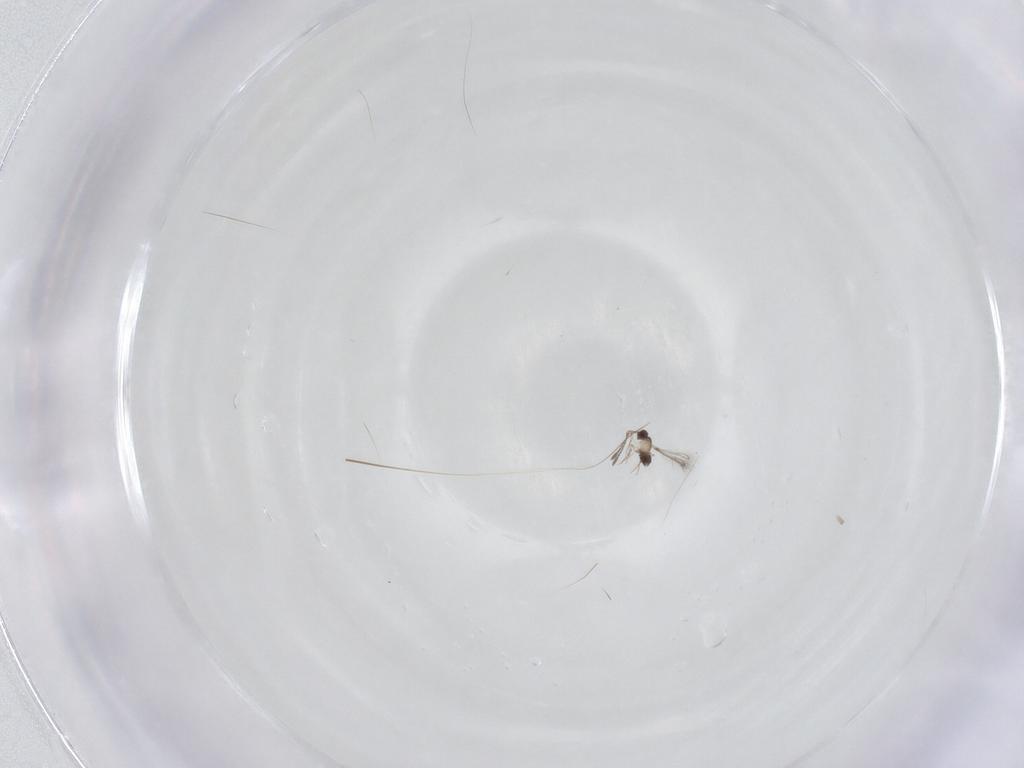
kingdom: Animalia
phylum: Arthropoda
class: Insecta
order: Hymenoptera
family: Mymaridae
